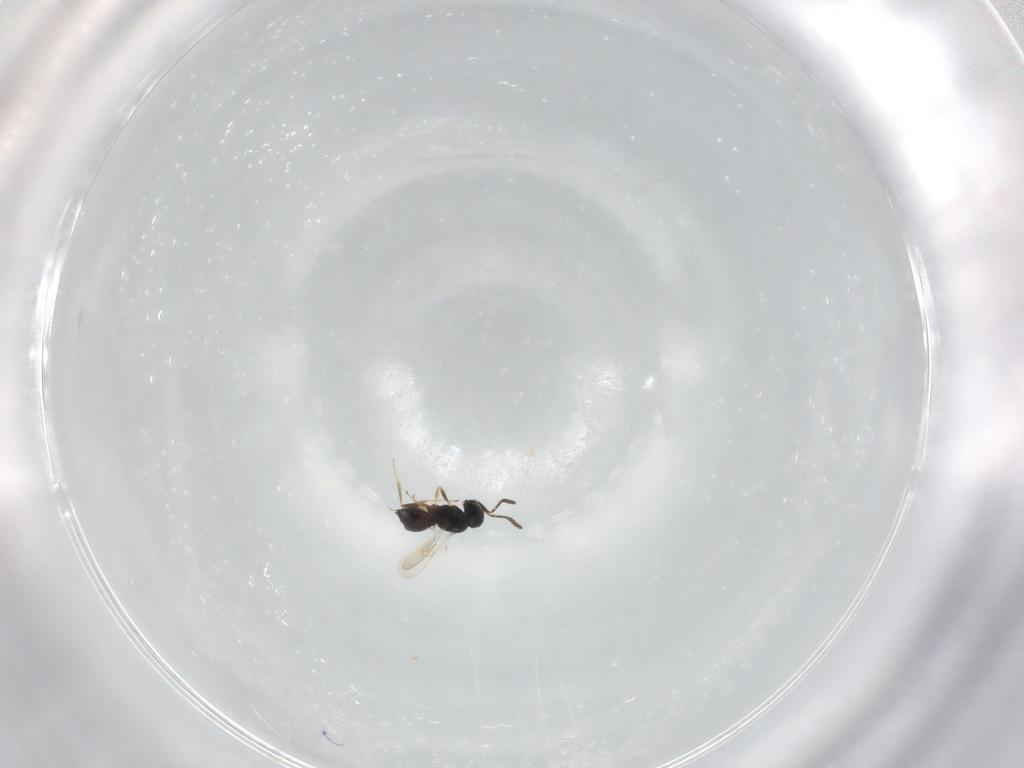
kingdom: Animalia
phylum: Arthropoda
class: Insecta
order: Hymenoptera
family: Scelionidae
